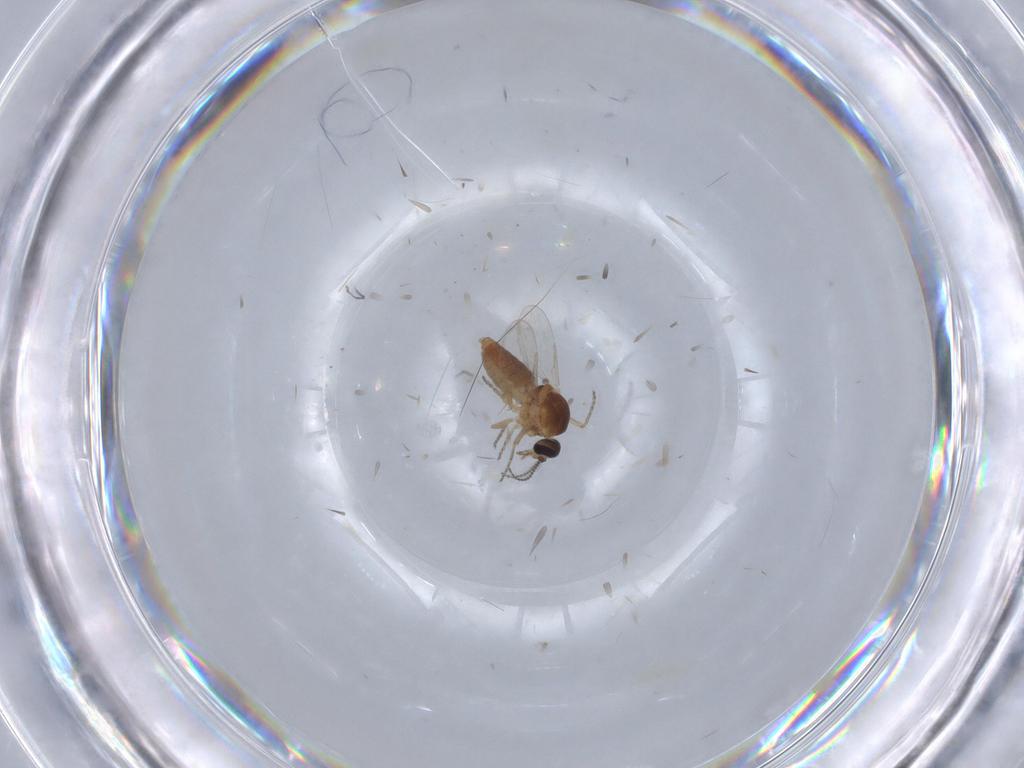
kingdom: Animalia
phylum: Arthropoda
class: Insecta
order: Diptera
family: Ceratopogonidae
